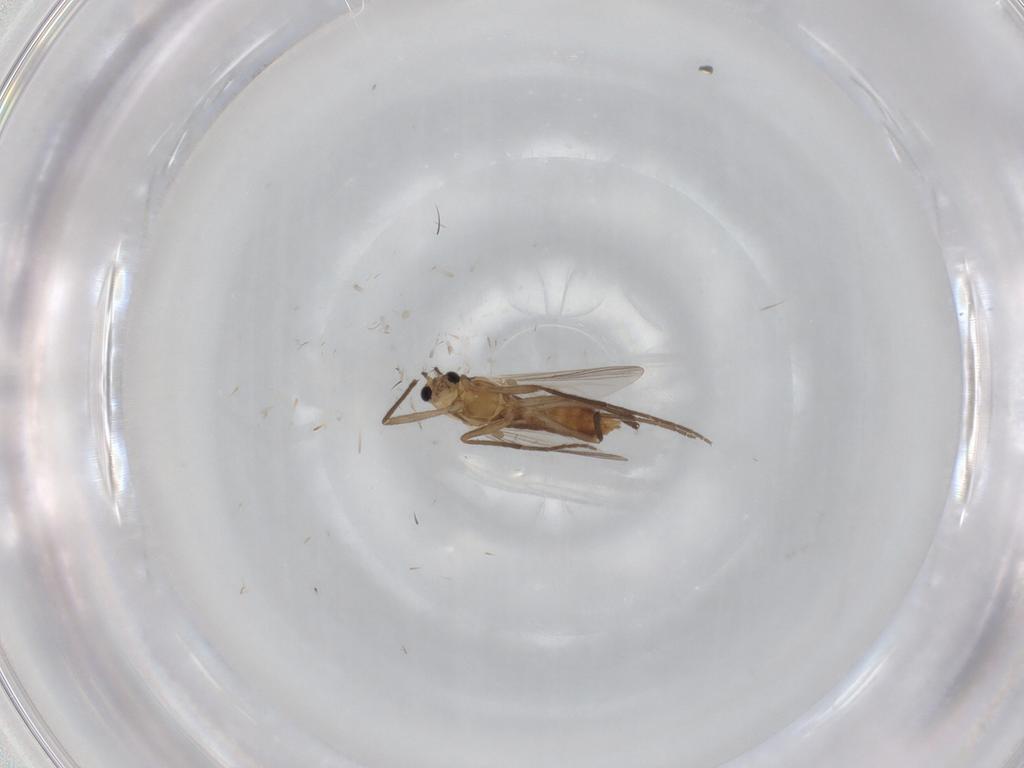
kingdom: Animalia
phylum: Arthropoda
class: Insecta
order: Diptera
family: Chironomidae
